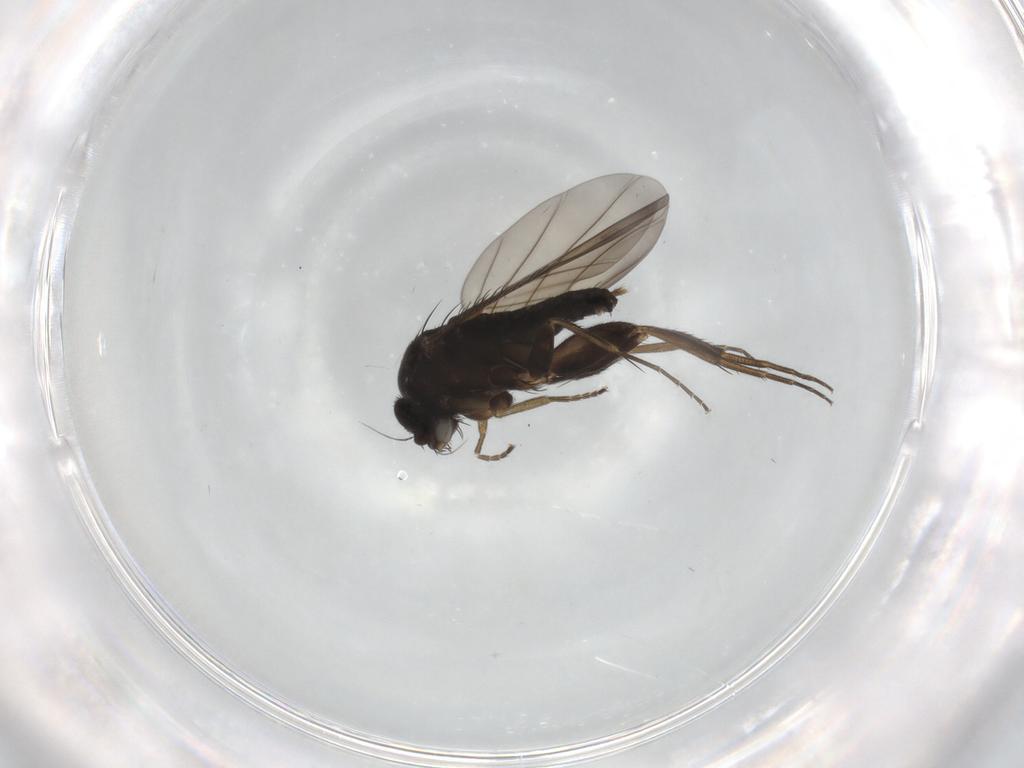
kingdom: Animalia
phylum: Arthropoda
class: Insecta
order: Diptera
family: Phoridae
